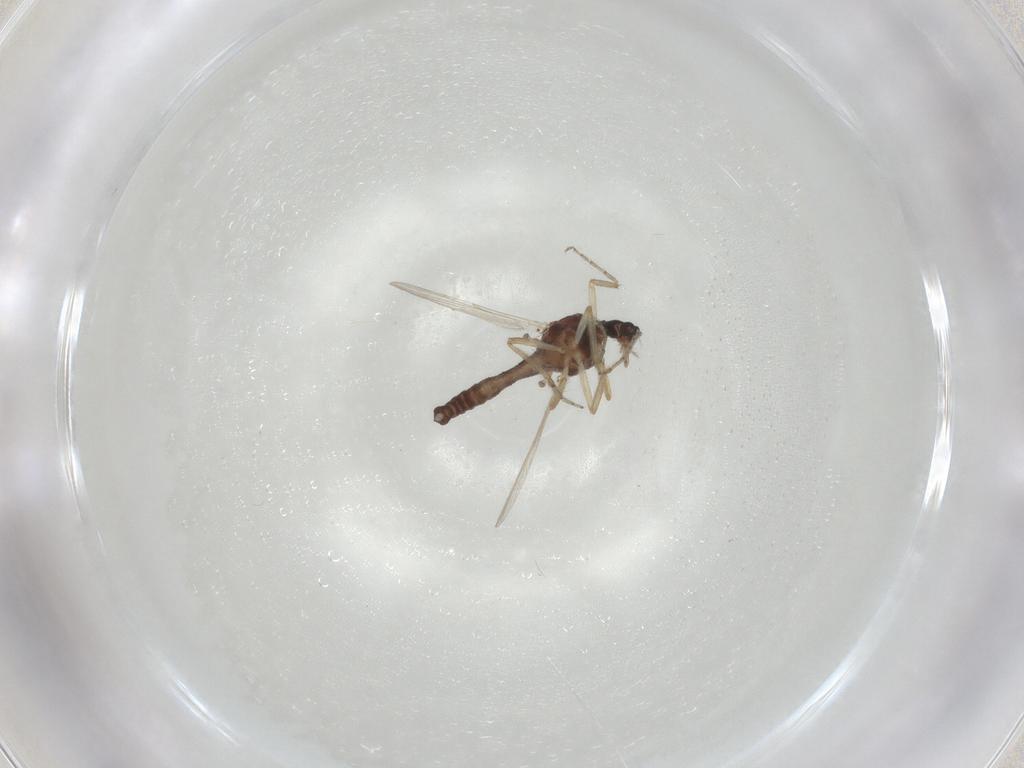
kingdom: Animalia
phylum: Arthropoda
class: Insecta
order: Diptera
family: Ceratopogonidae
